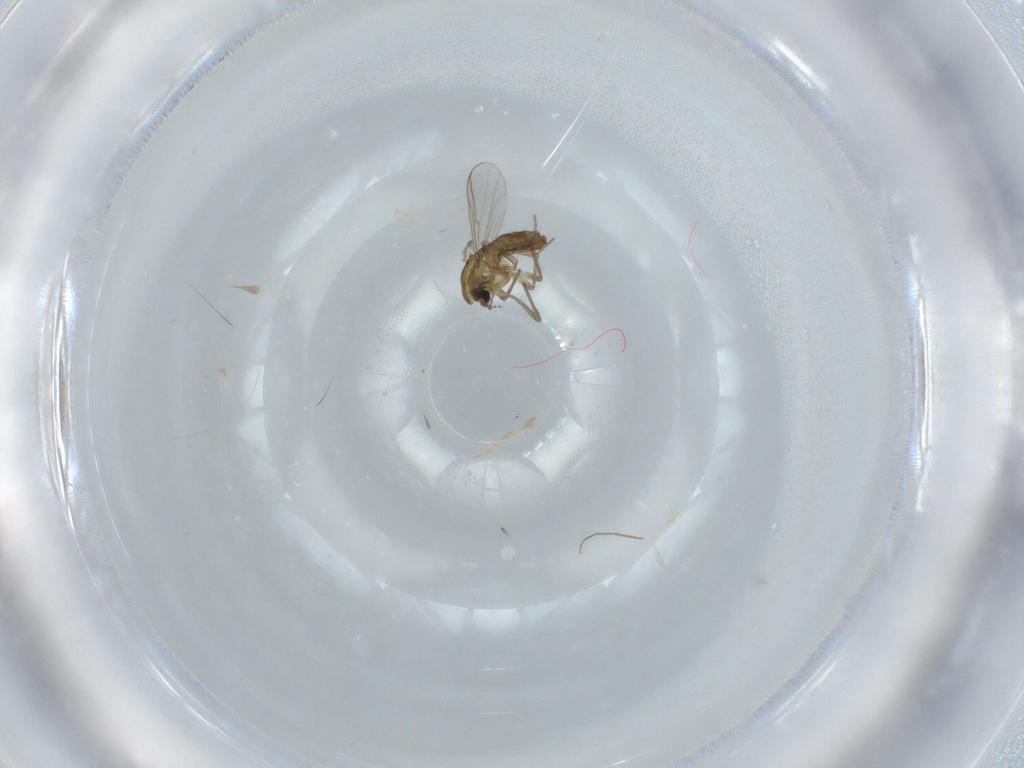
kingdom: Animalia
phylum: Arthropoda
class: Insecta
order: Diptera
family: Chironomidae
